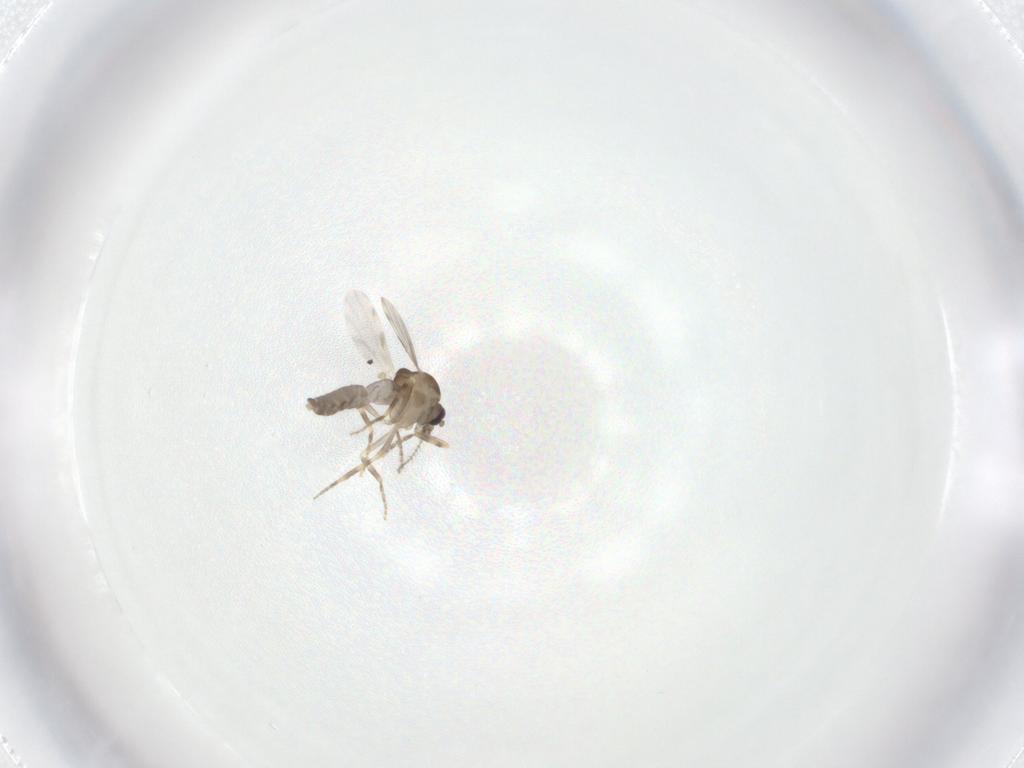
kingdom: Animalia
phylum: Arthropoda
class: Insecta
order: Diptera
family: Ceratopogonidae
